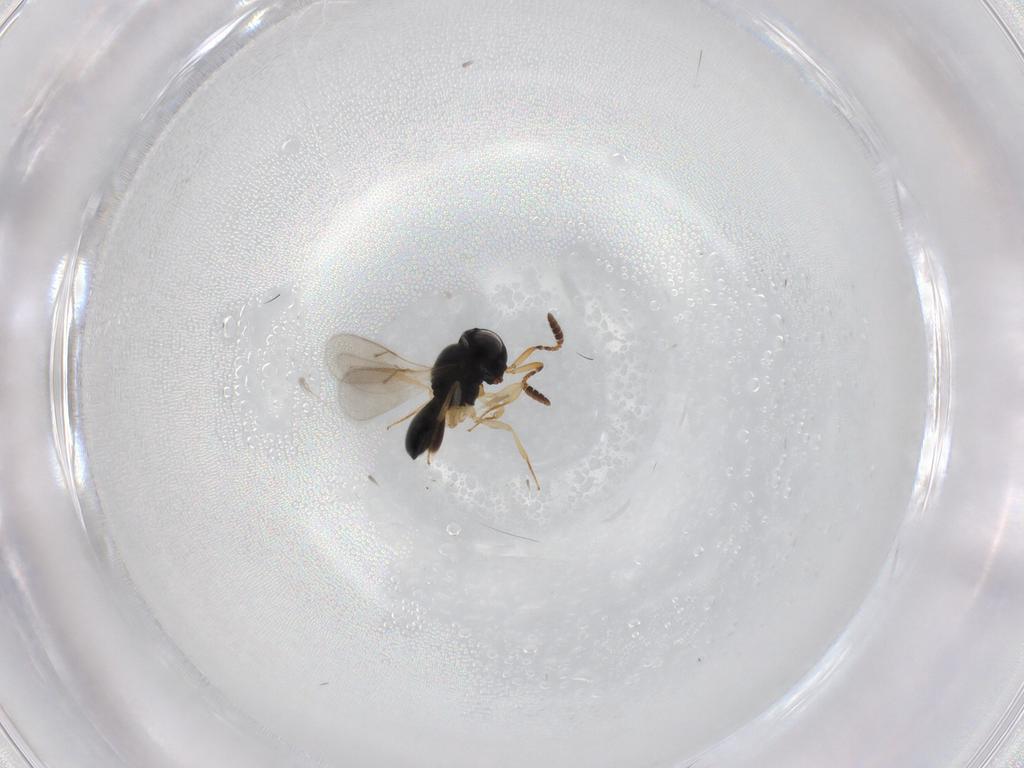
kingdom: Animalia
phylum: Arthropoda
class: Insecta
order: Hymenoptera
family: Scelionidae
